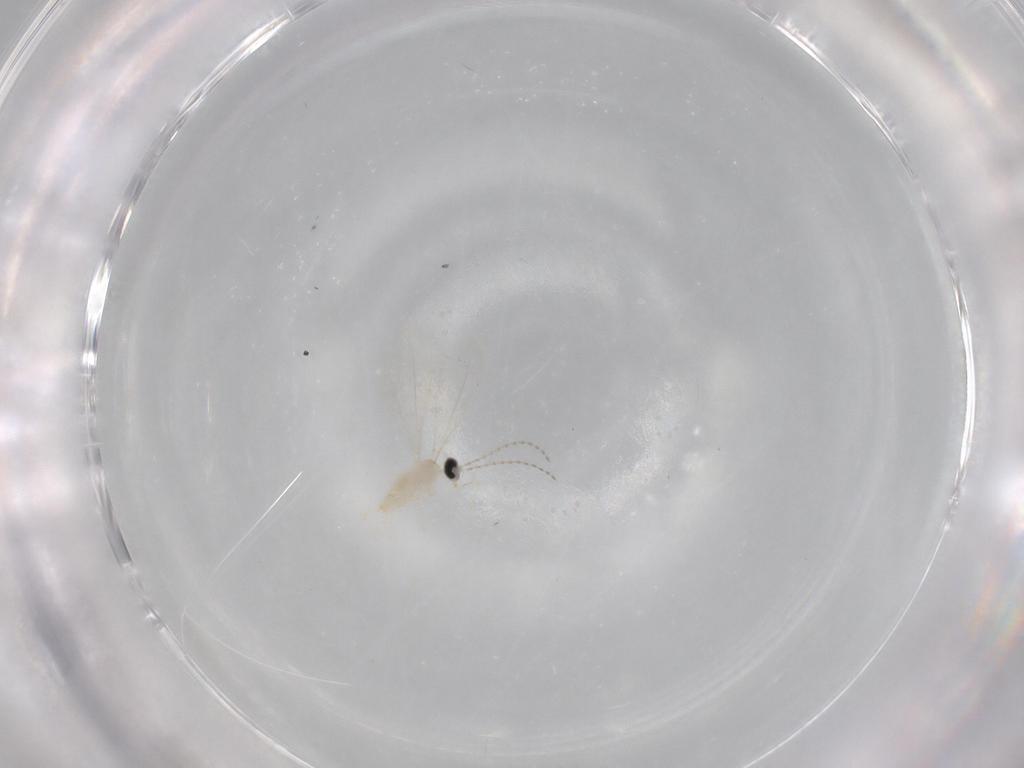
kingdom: Animalia
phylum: Arthropoda
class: Insecta
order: Diptera
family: Cecidomyiidae
